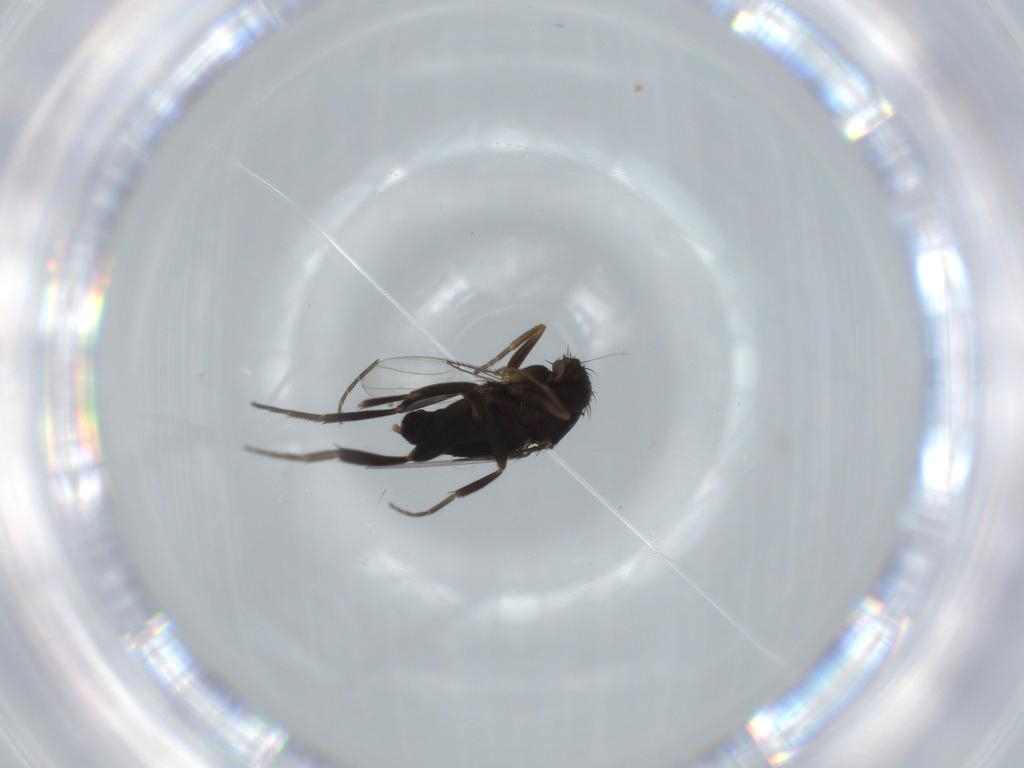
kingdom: Animalia
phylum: Arthropoda
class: Insecta
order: Diptera
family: Phoridae
